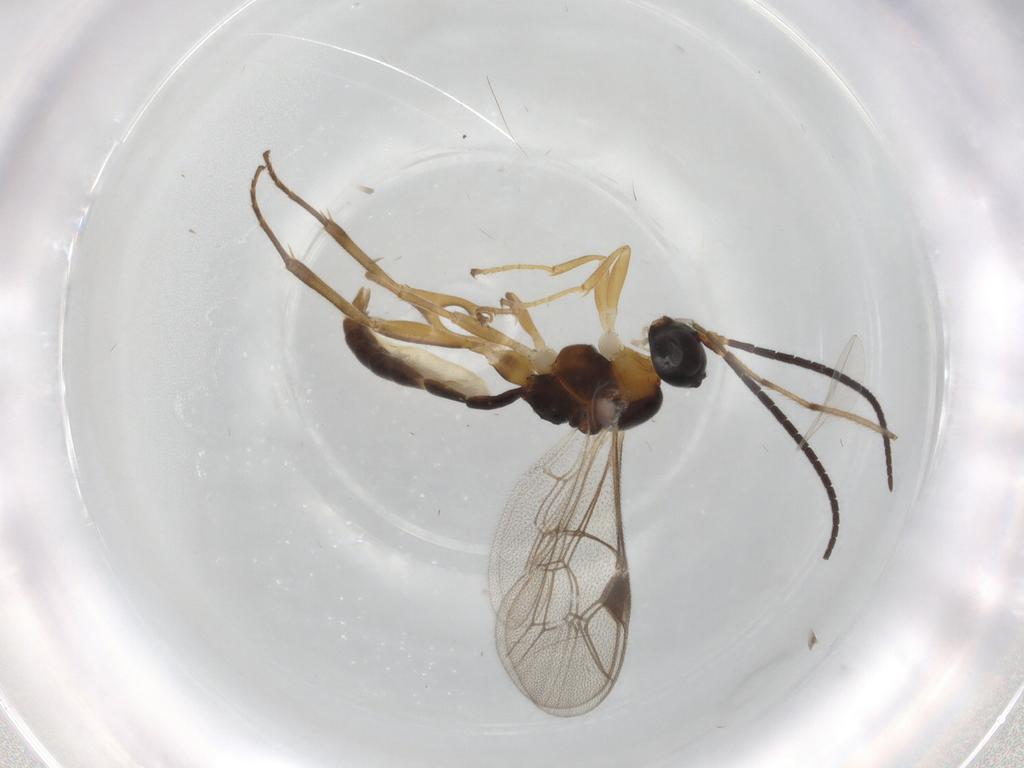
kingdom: Animalia
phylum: Arthropoda
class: Insecta
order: Hymenoptera
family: Ichneumonidae
